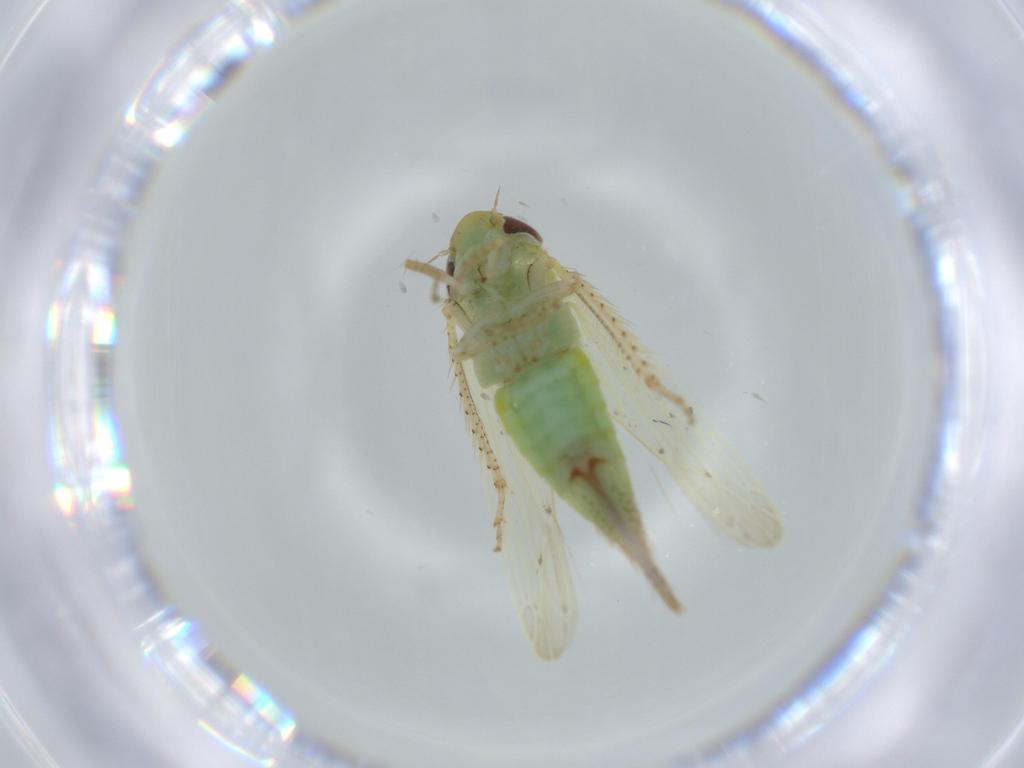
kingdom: Animalia
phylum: Arthropoda
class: Insecta
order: Hemiptera
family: Cicadellidae
